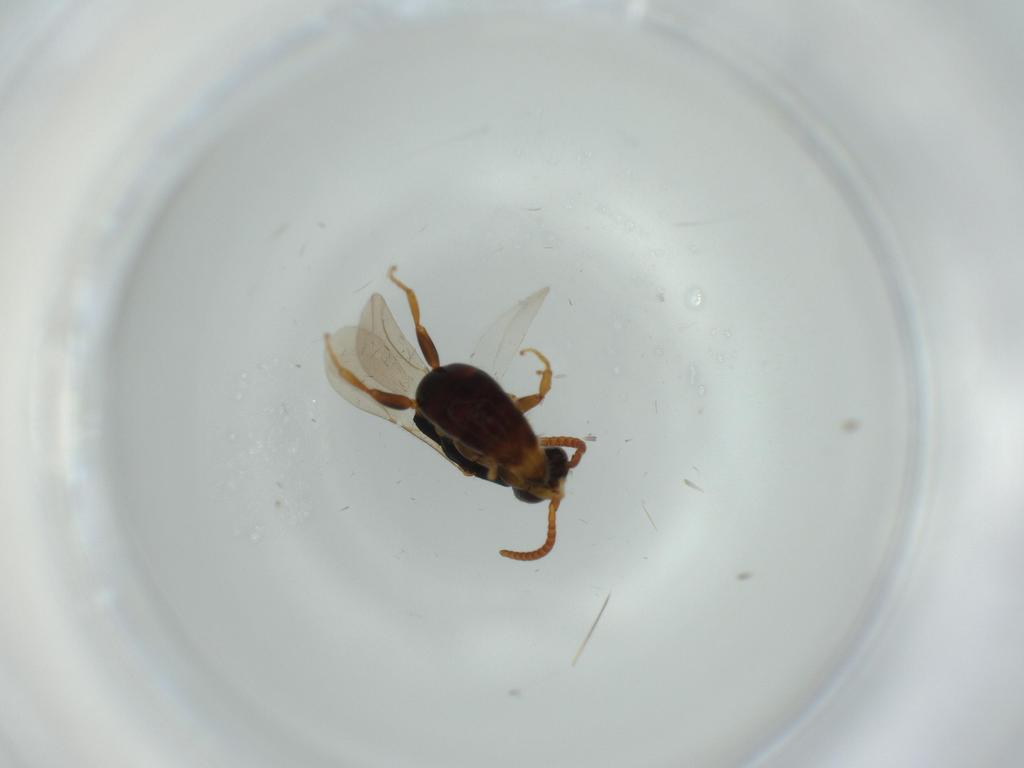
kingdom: Animalia
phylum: Arthropoda
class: Insecta
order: Hymenoptera
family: Bethylidae
